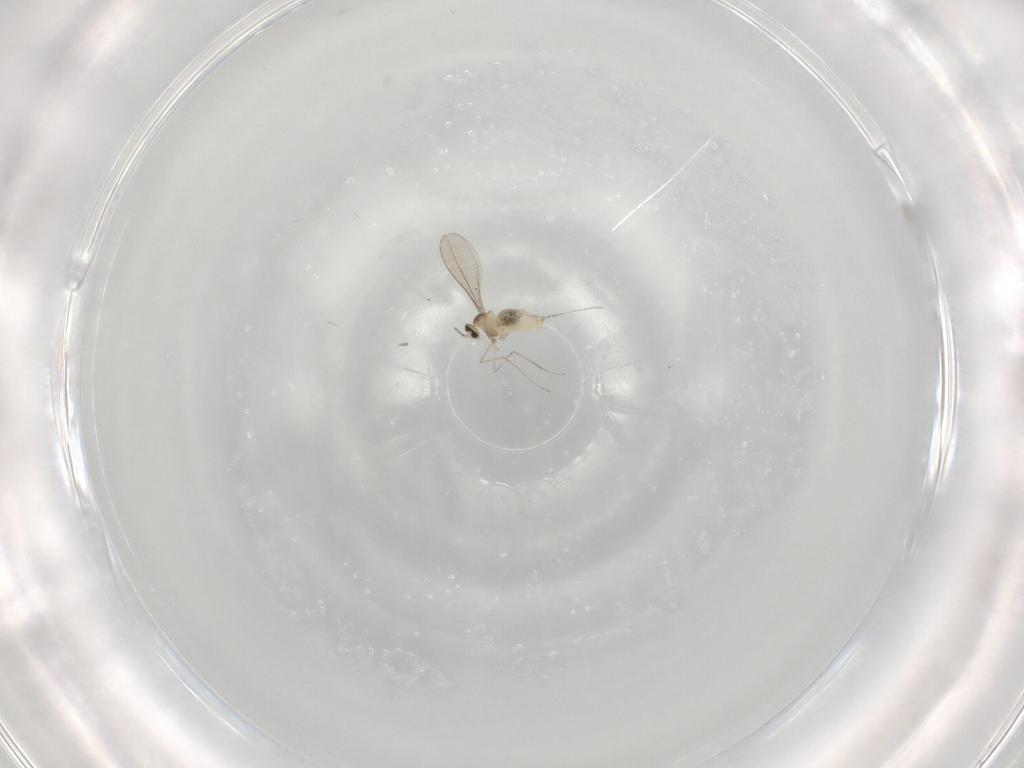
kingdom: Animalia
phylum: Arthropoda
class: Insecta
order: Diptera
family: Cecidomyiidae
